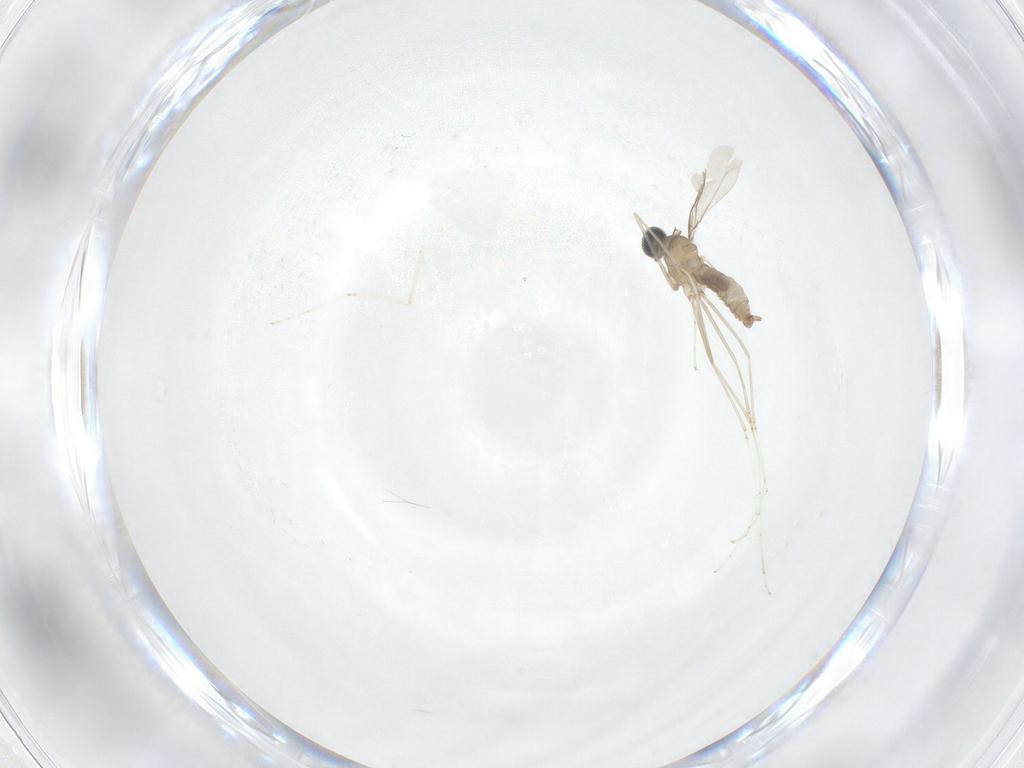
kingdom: Animalia
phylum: Arthropoda
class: Insecta
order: Diptera
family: Cecidomyiidae
